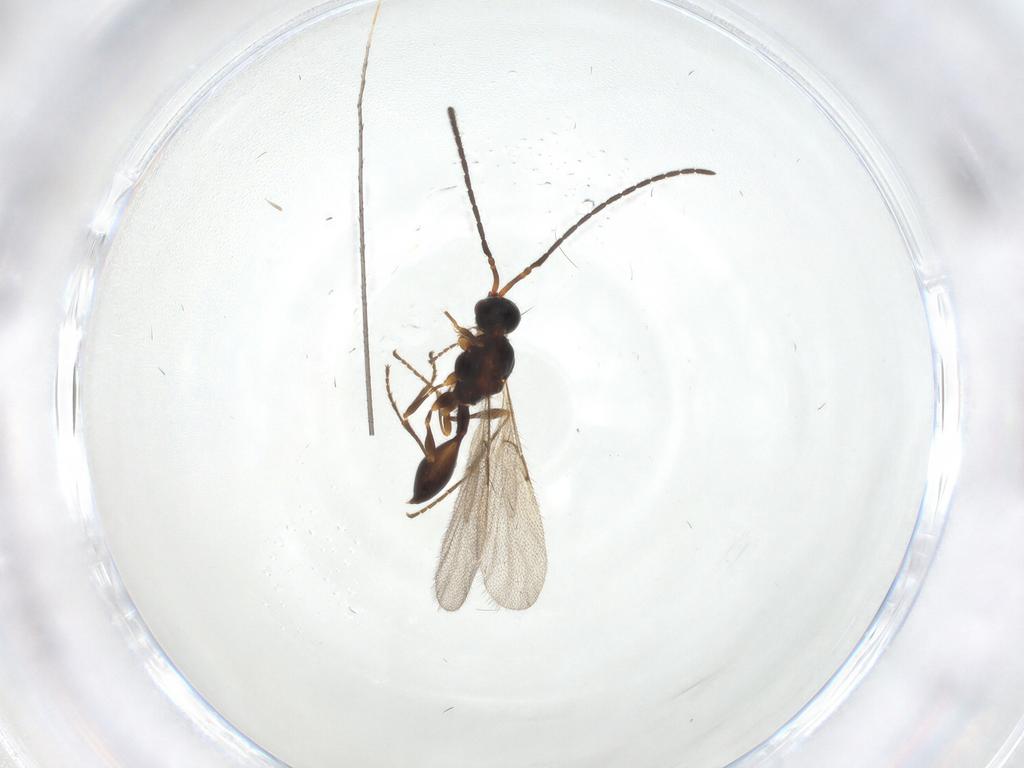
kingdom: Animalia
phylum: Arthropoda
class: Insecta
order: Hymenoptera
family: Diapriidae
